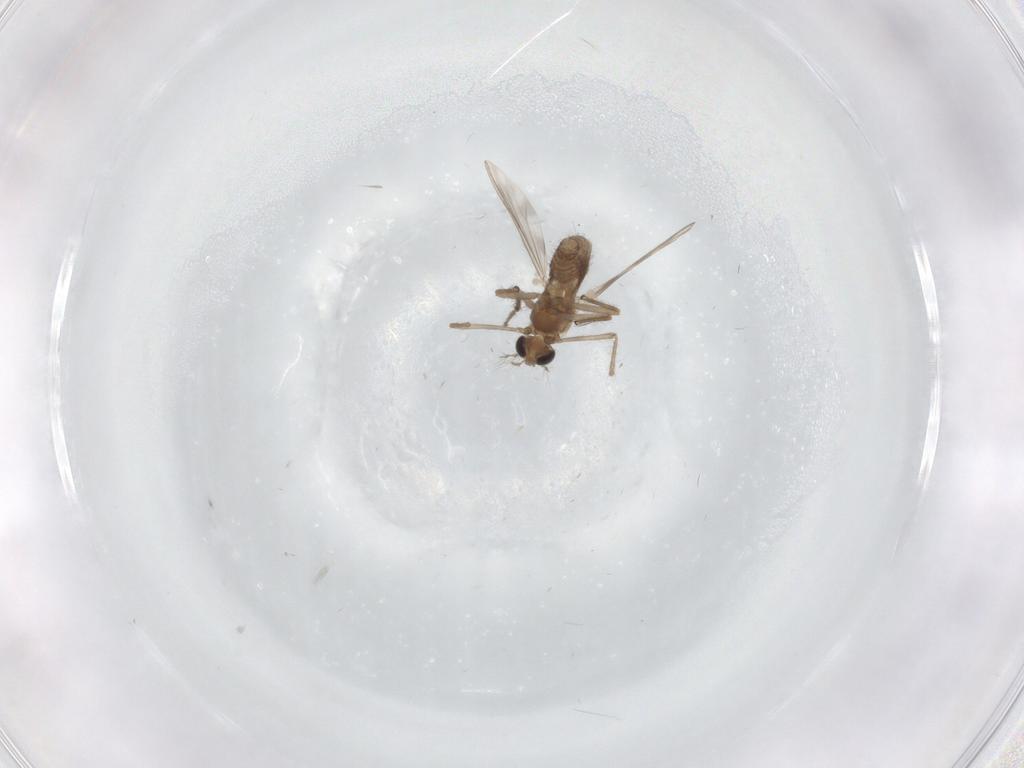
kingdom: Animalia
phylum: Arthropoda
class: Insecta
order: Diptera
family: Chironomidae
